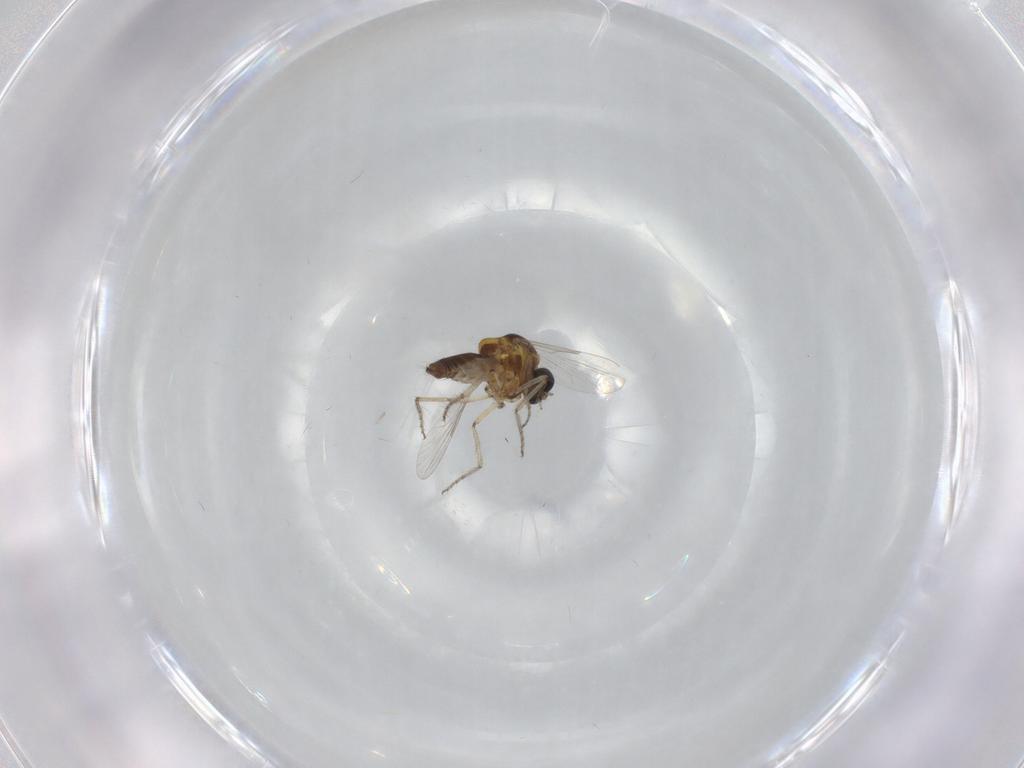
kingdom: Animalia
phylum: Arthropoda
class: Insecta
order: Diptera
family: Ceratopogonidae
